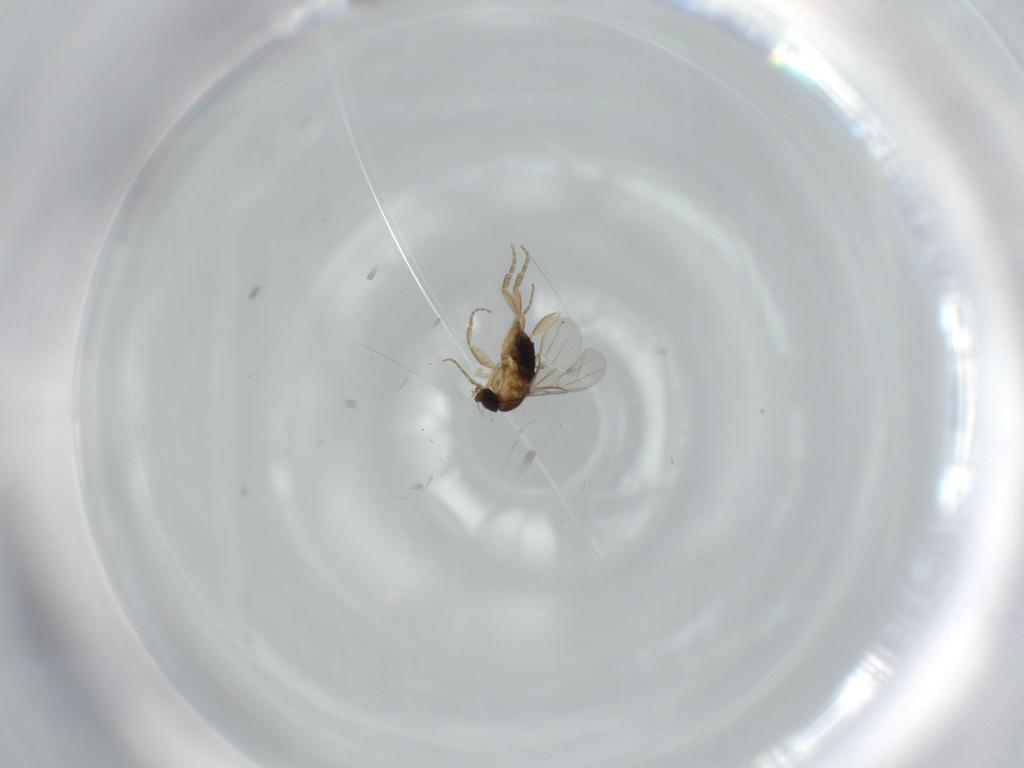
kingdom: Animalia
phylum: Arthropoda
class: Insecta
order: Diptera
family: Phoridae
